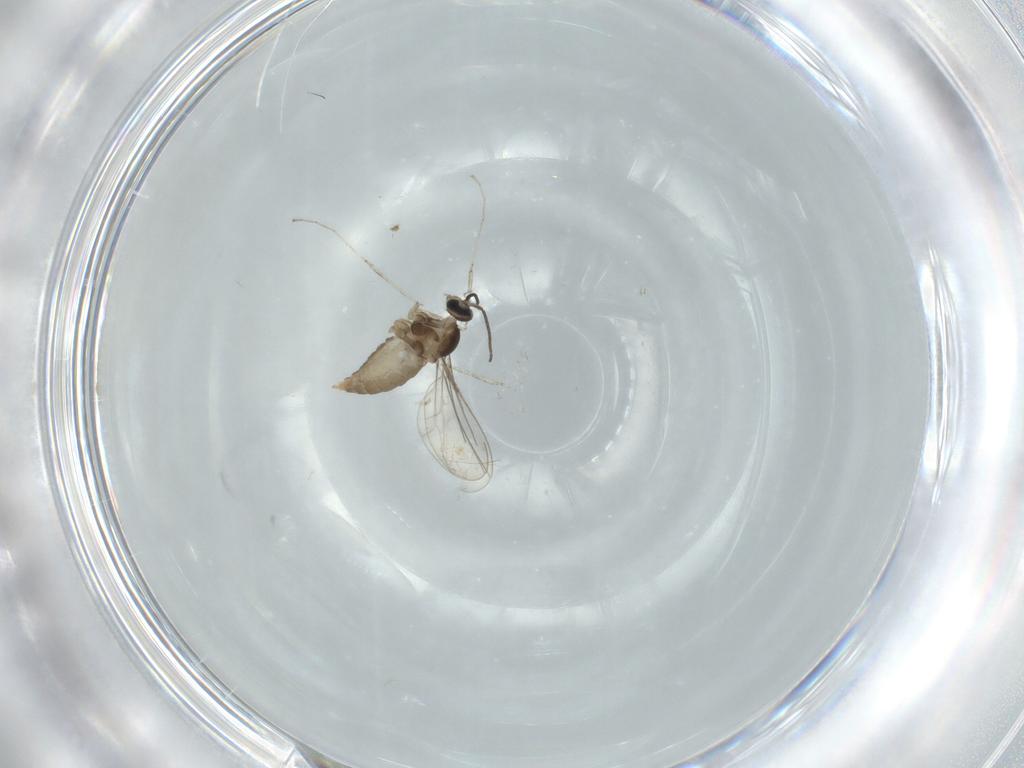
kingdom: Animalia
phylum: Arthropoda
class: Insecta
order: Diptera
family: Cecidomyiidae
